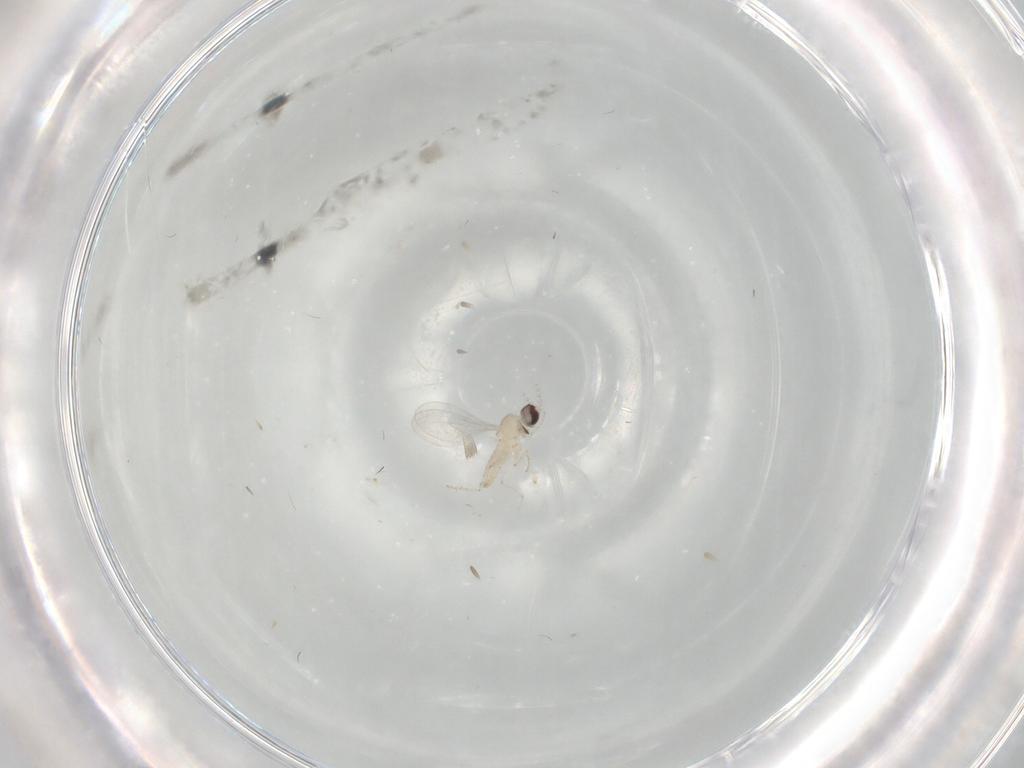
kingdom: Animalia
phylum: Arthropoda
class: Insecta
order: Diptera
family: Cecidomyiidae
